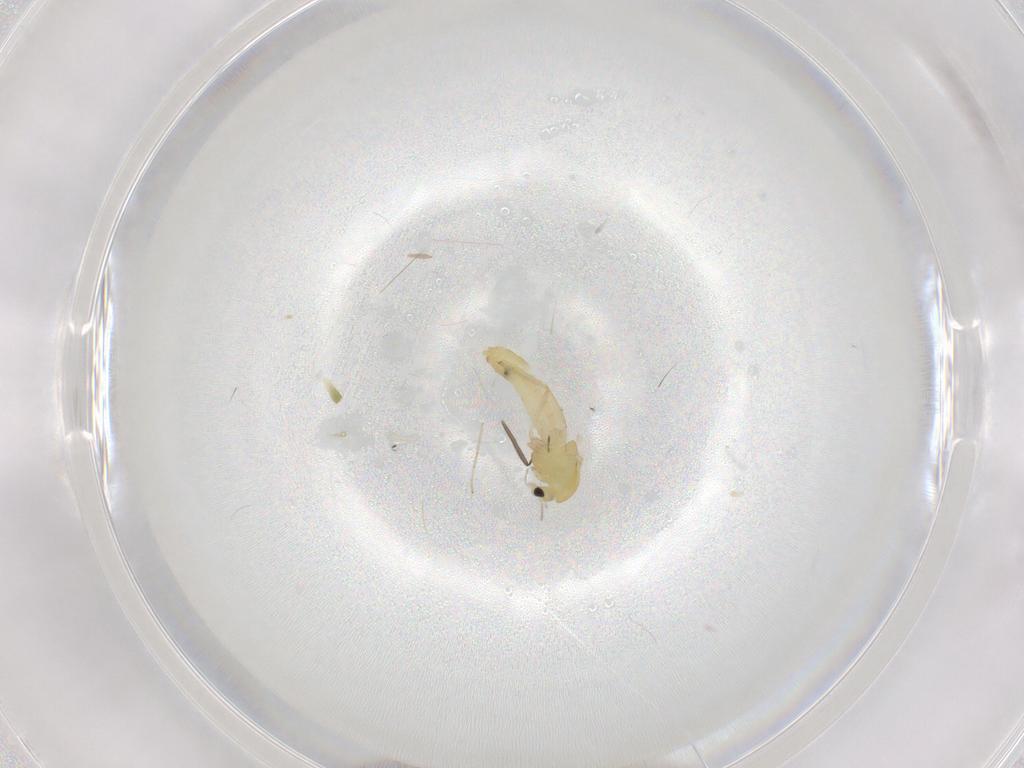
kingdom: Animalia
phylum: Arthropoda
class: Insecta
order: Diptera
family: Chironomidae
